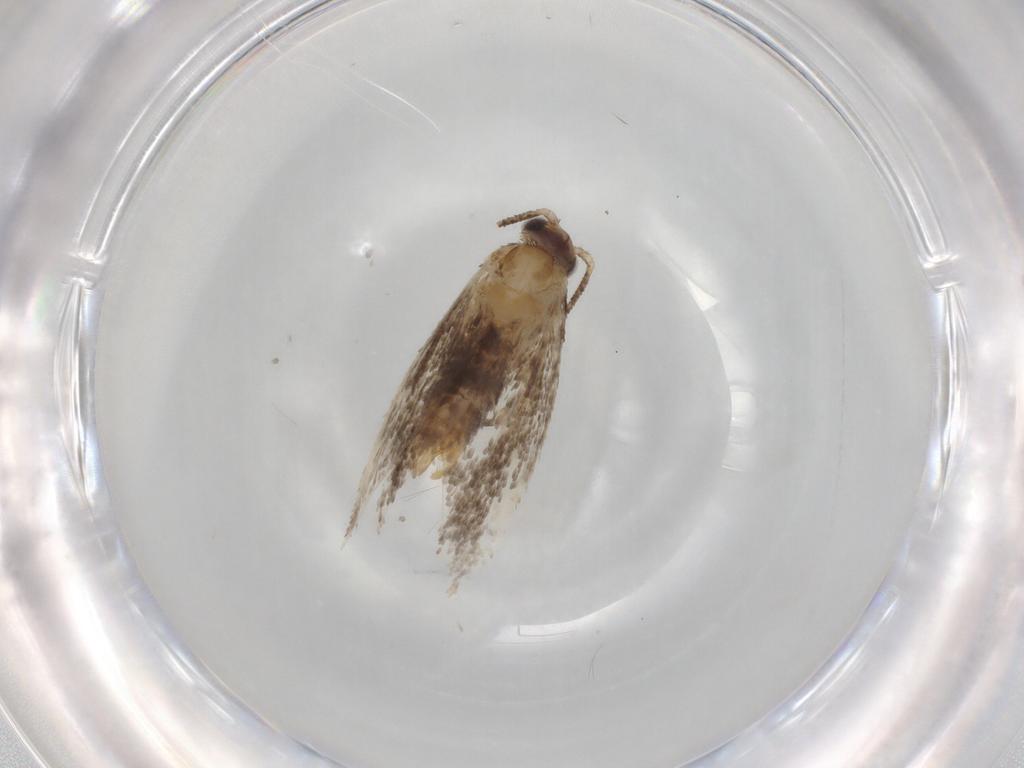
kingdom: Animalia
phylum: Arthropoda
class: Insecta
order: Lepidoptera
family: Tineidae
